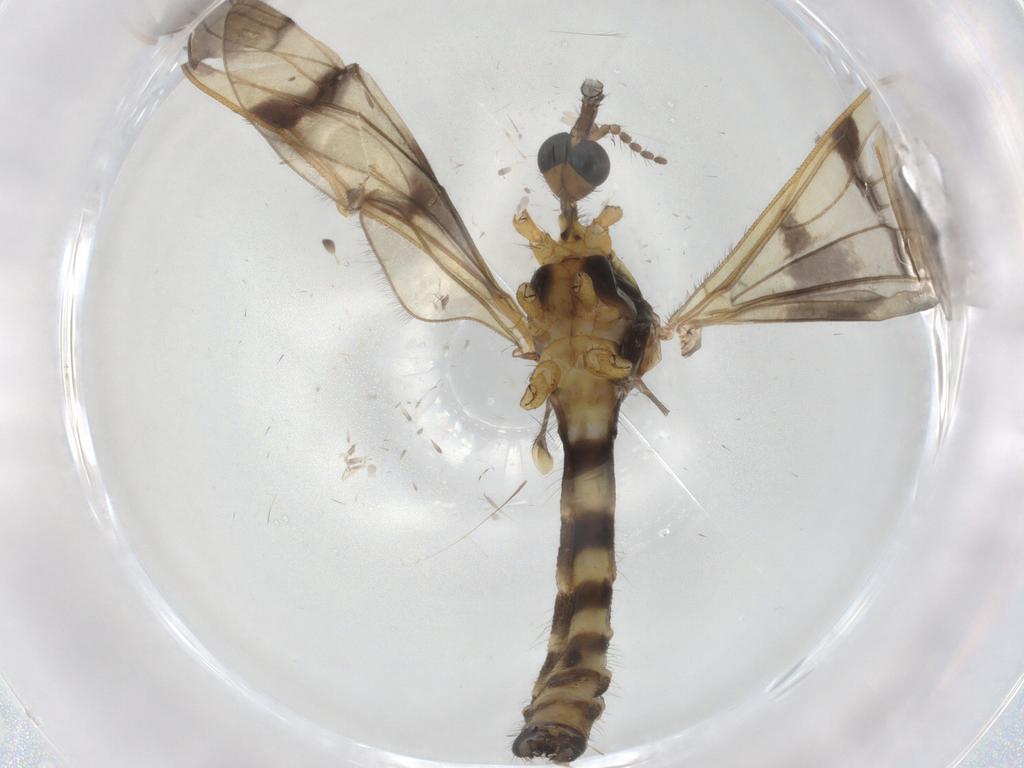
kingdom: Animalia
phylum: Arthropoda
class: Insecta
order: Diptera
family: Limoniidae
